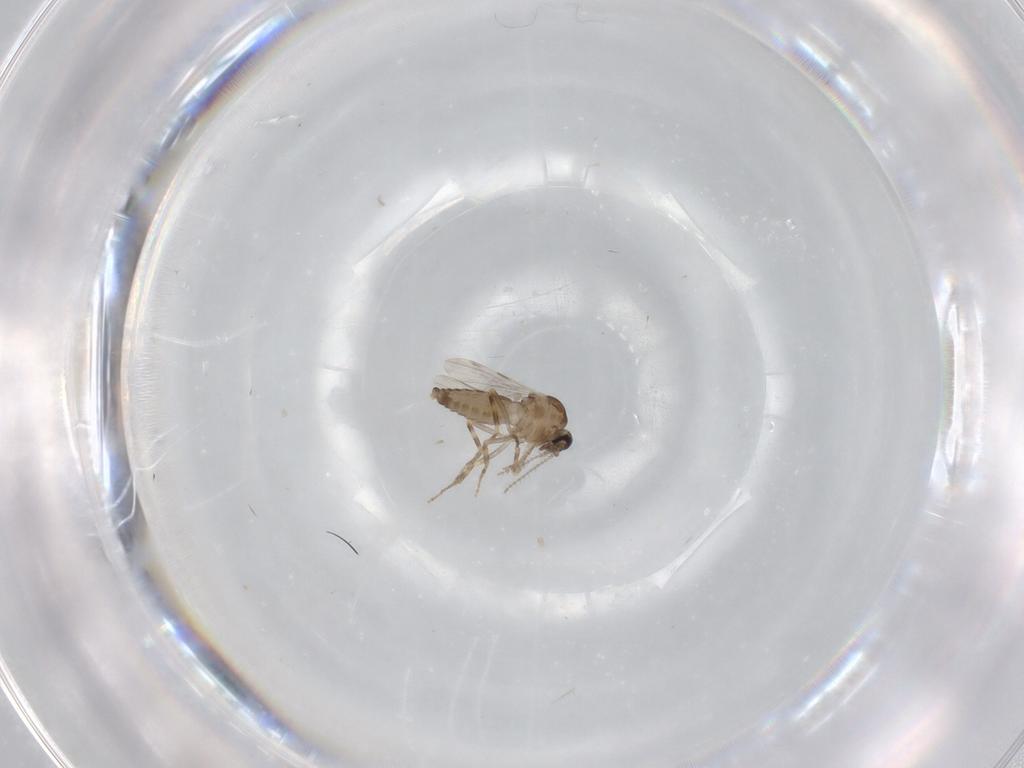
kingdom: Animalia
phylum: Arthropoda
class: Insecta
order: Diptera
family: Ceratopogonidae
